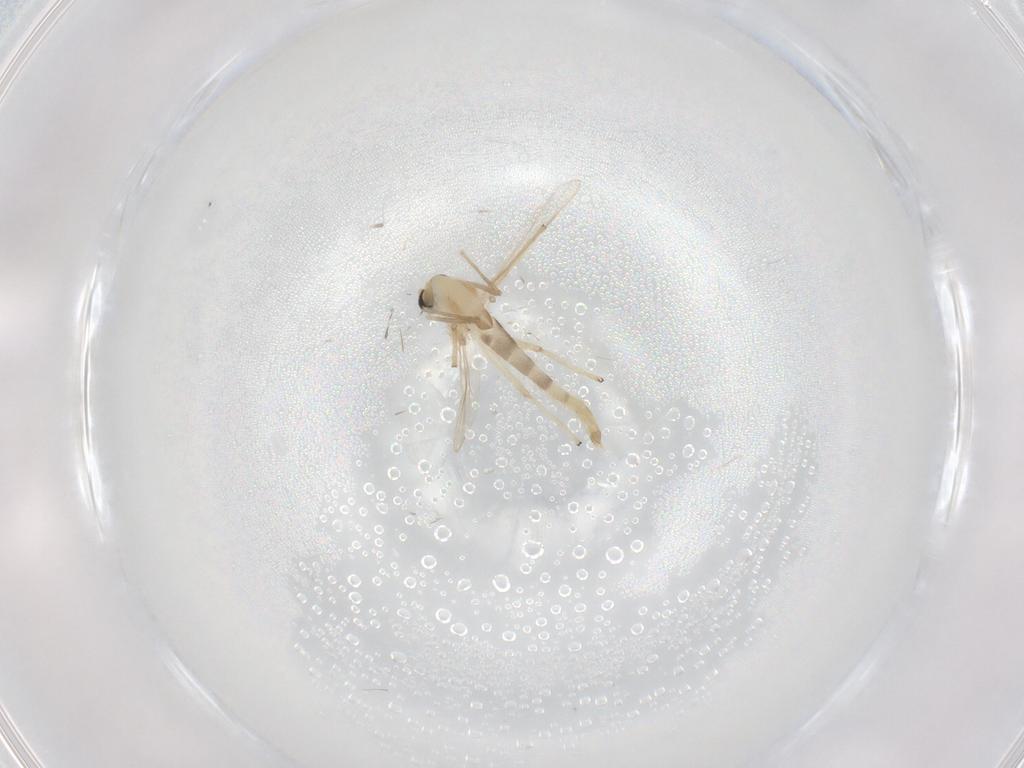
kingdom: Animalia
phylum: Arthropoda
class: Insecta
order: Diptera
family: Chironomidae
